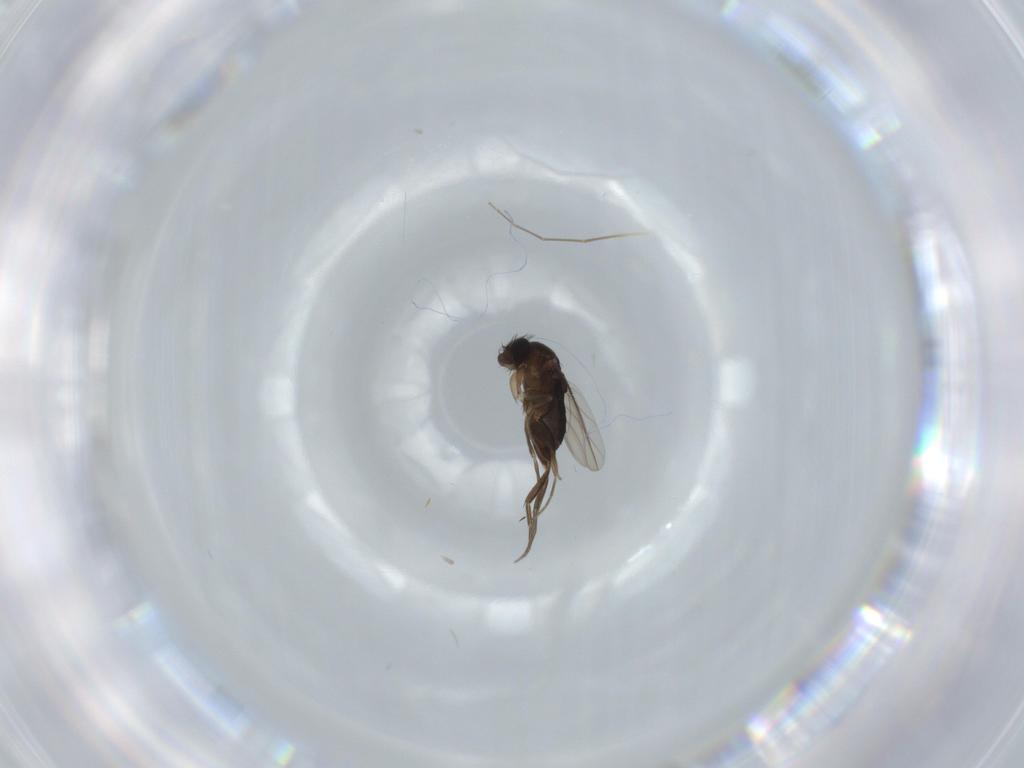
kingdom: Animalia
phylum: Arthropoda
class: Insecta
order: Diptera
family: Phoridae
